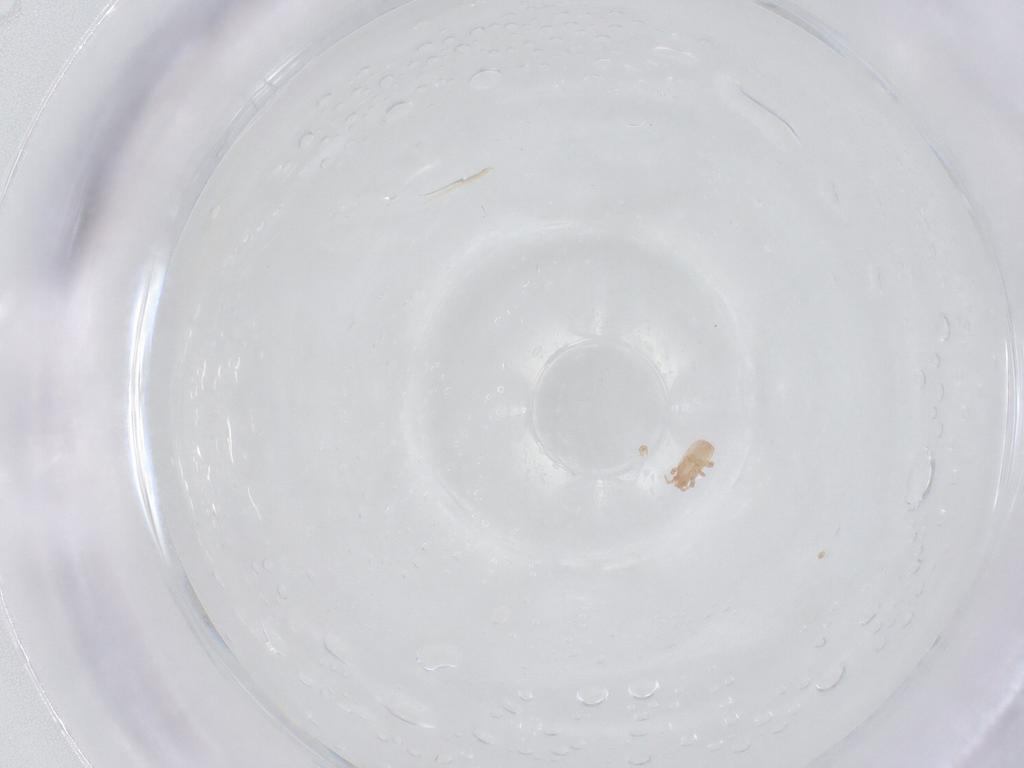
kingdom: Animalia
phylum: Arthropoda
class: Arachnida
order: Mesostigmata
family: Digamasellidae
